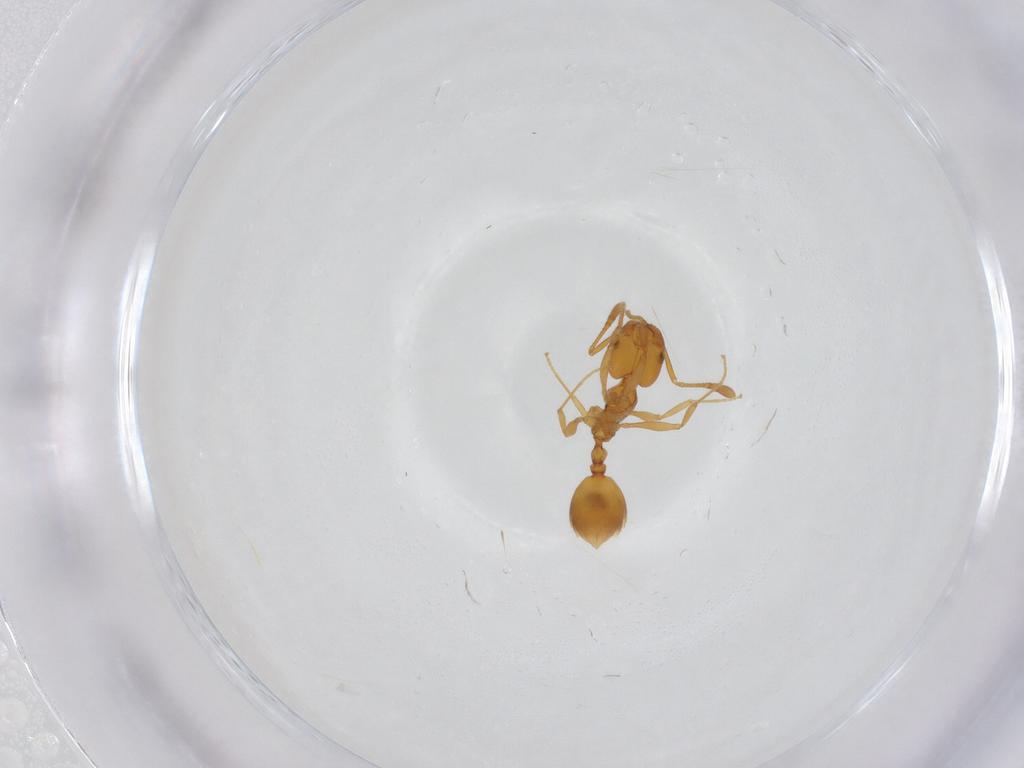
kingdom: Animalia
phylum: Arthropoda
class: Insecta
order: Hymenoptera
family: Formicidae
